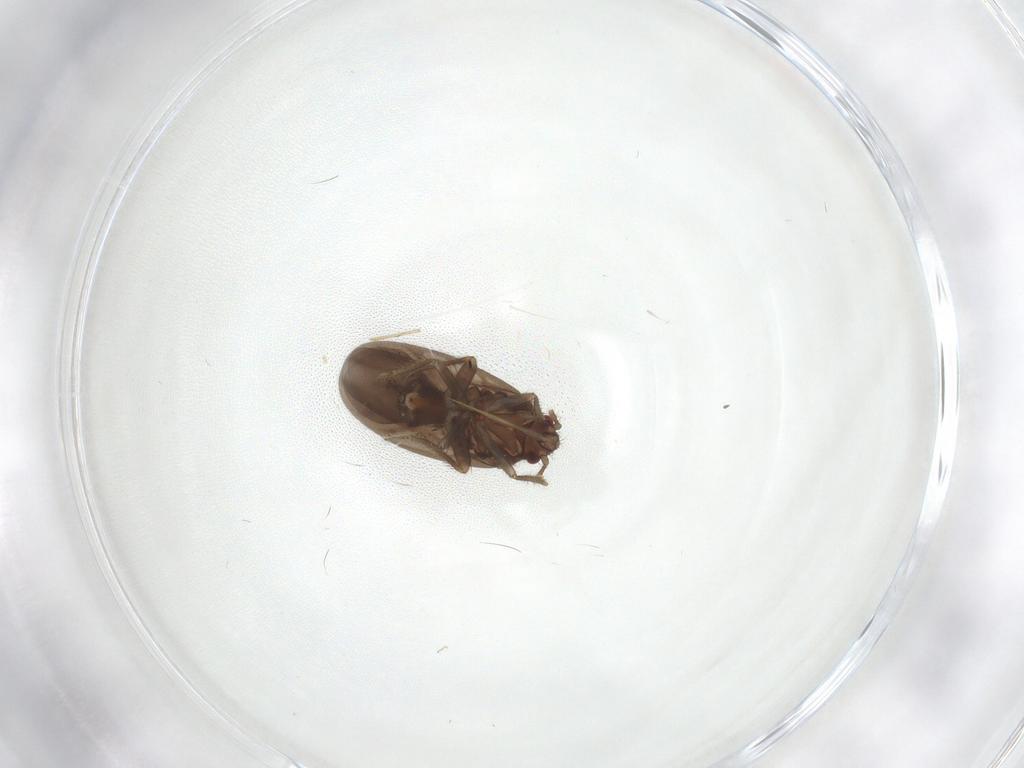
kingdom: Animalia
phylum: Arthropoda
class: Insecta
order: Hemiptera
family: Ceratocombidae
